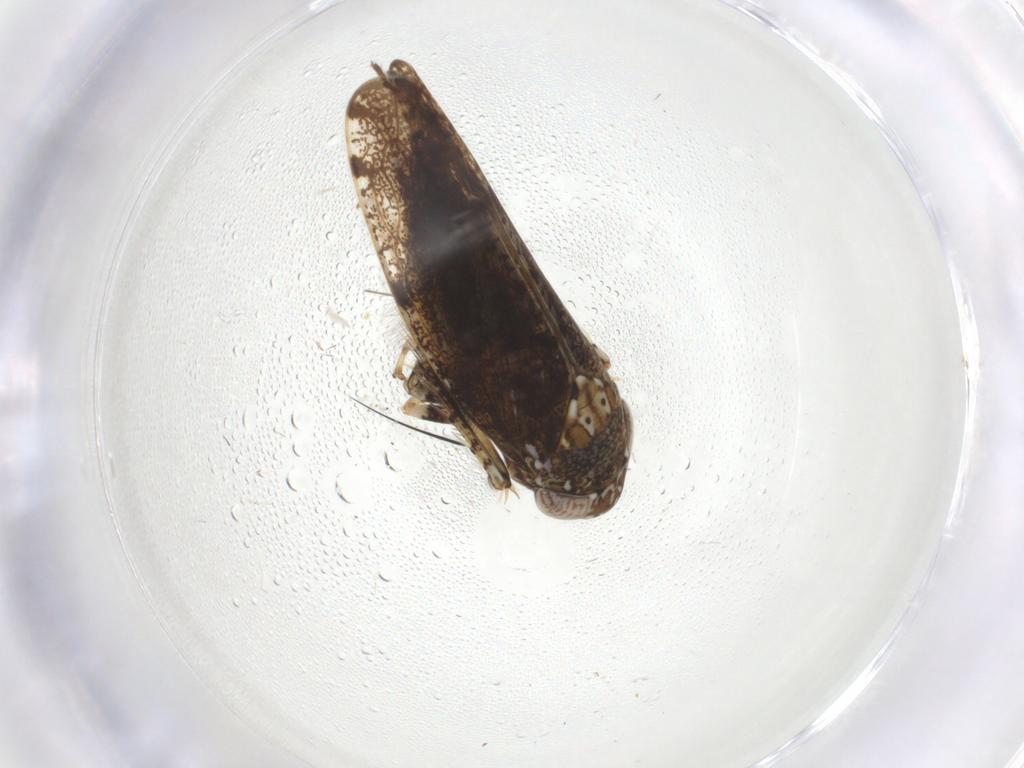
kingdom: Animalia
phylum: Arthropoda
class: Insecta
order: Hemiptera
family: Cicadellidae
